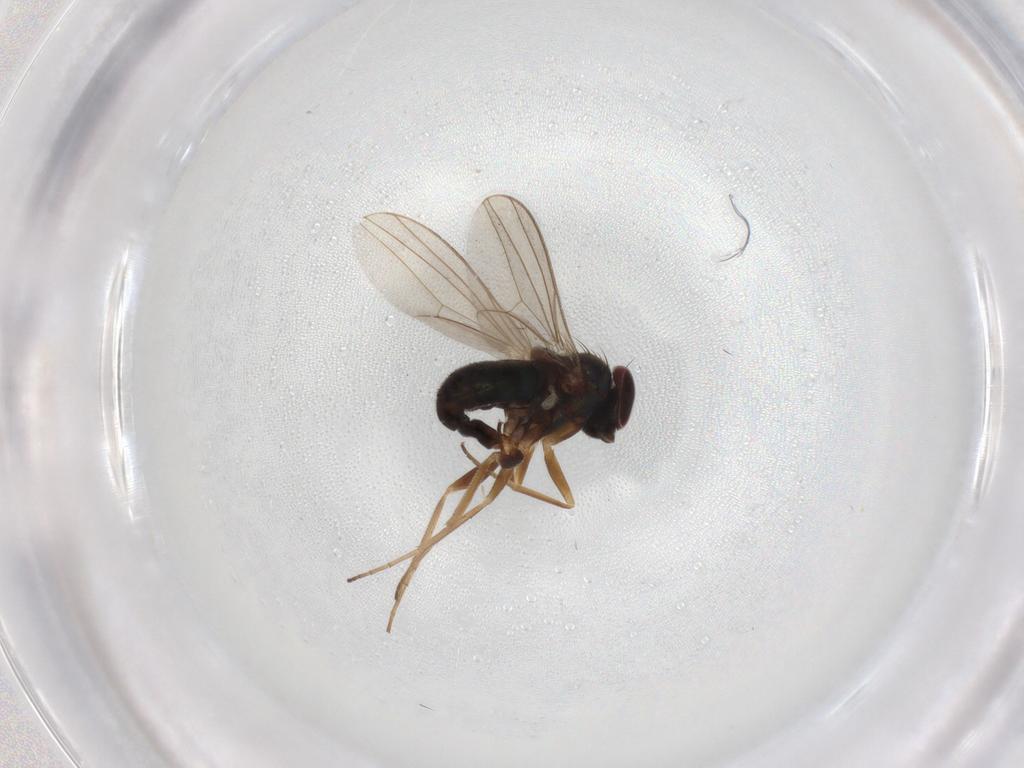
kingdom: Animalia
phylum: Arthropoda
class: Insecta
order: Diptera
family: Dolichopodidae
